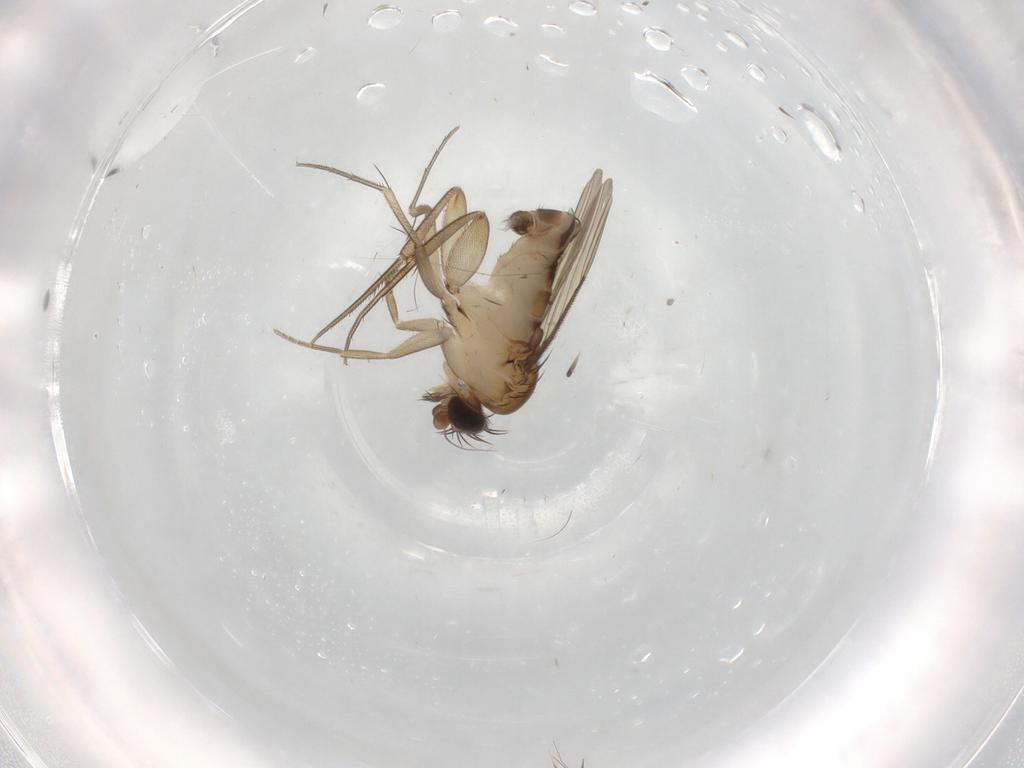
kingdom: Animalia
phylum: Arthropoda
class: Insecta
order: Diptera
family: Phoridae
